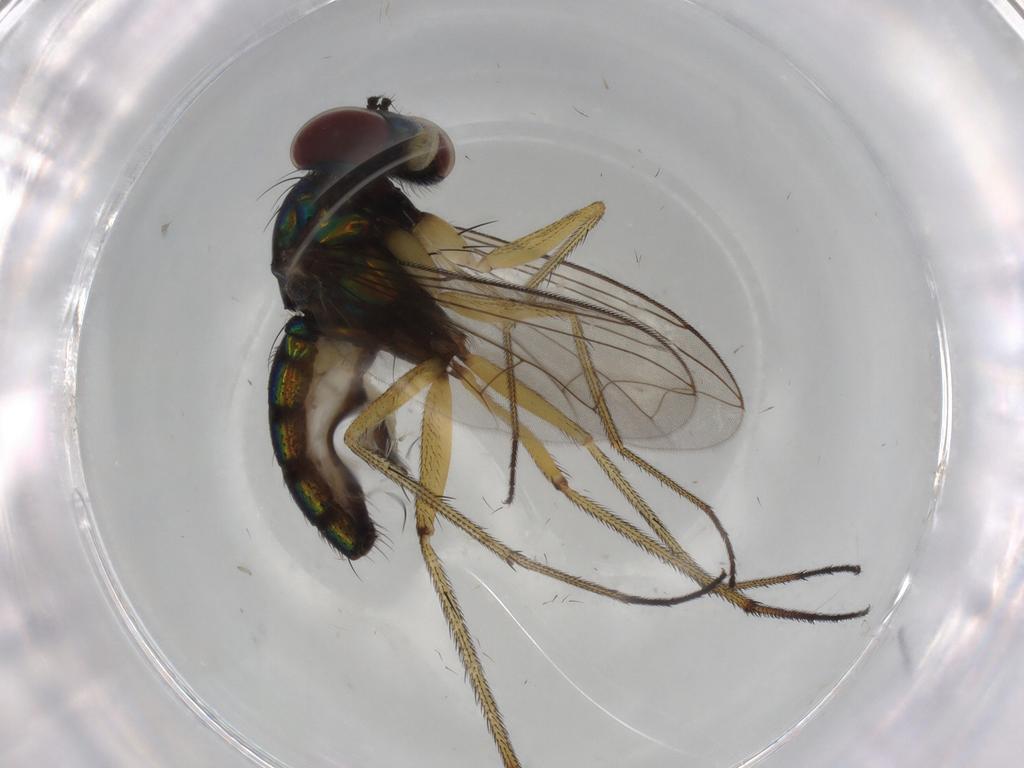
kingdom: Animalia
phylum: Arthropoda
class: Insecta
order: Diptera
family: Dolichopodidae
